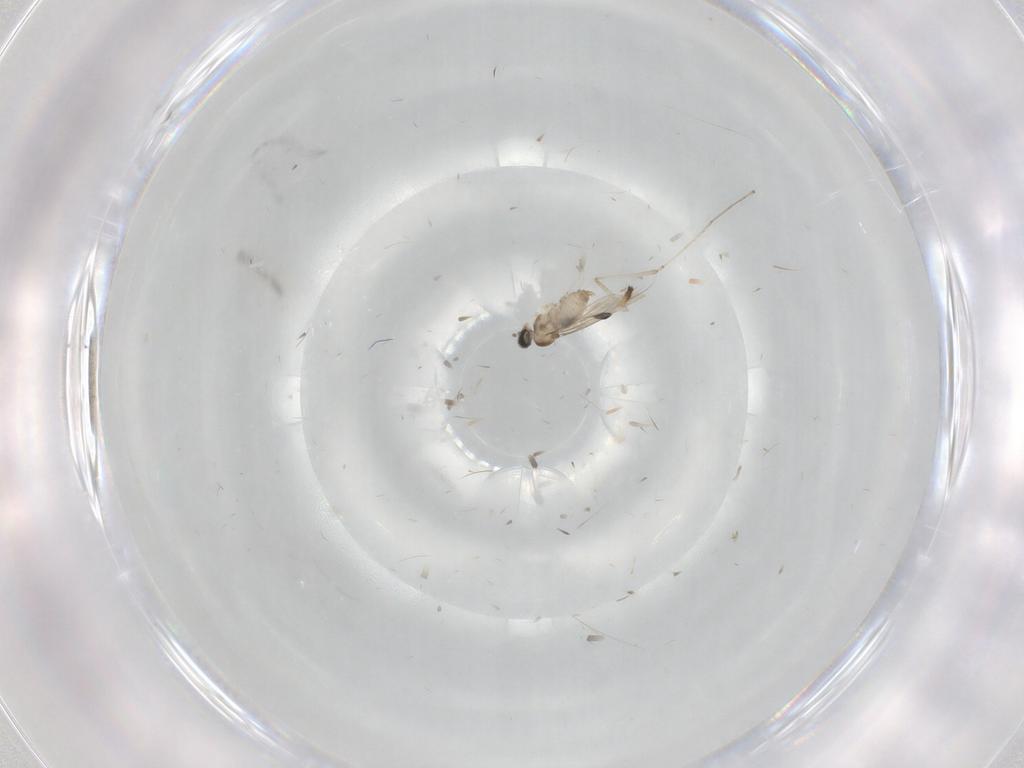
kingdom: Animalia
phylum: Arthropoda
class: Insecta
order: Diptera
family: Cecidomyiidae
